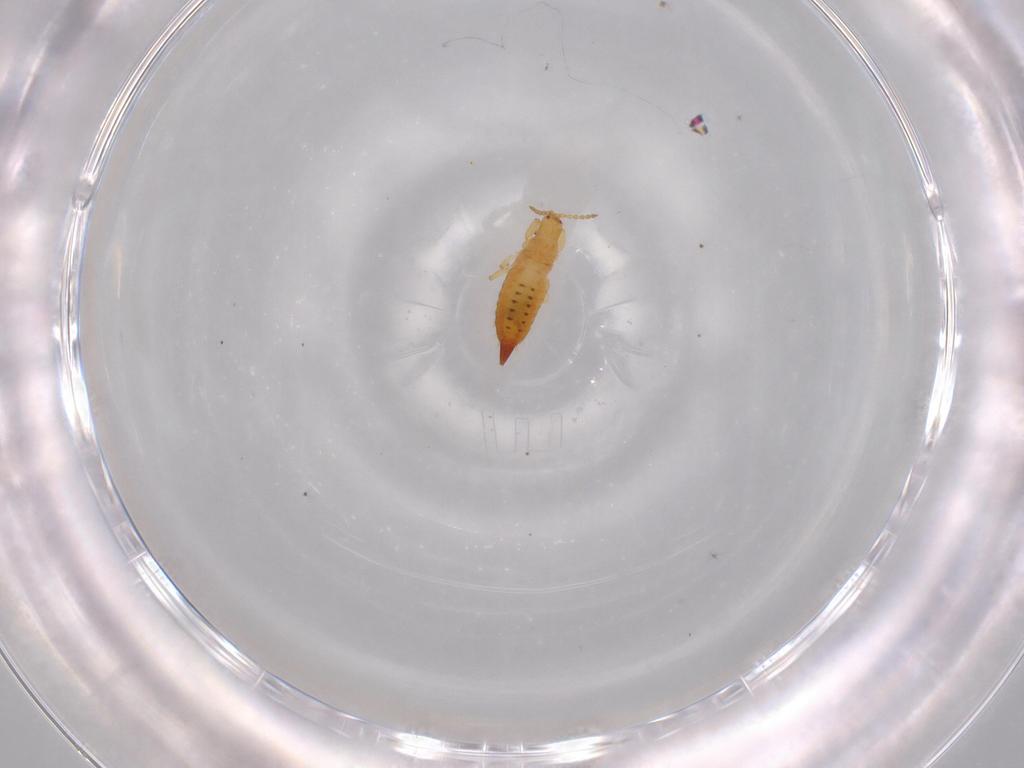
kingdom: Animalia
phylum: Arthropoda
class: Insecta
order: Thysanoptera
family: Phlaeothripidae
